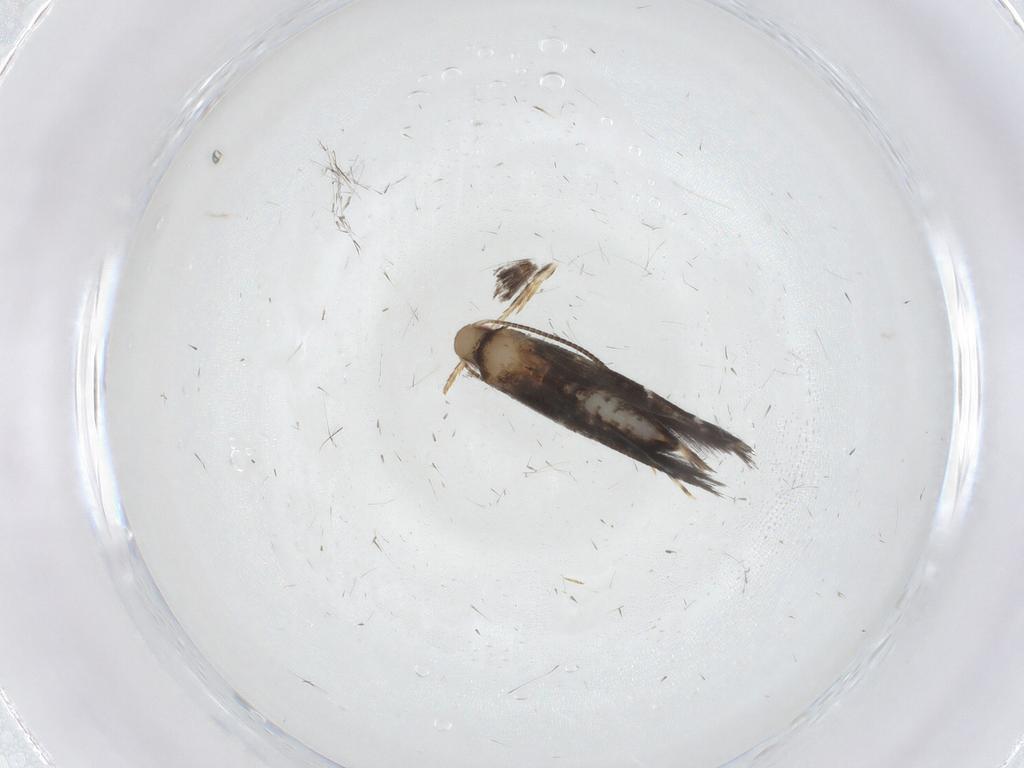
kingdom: Animalia
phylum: Arthropoda
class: Insecta
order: Lepidoptera
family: Gracillariidae
